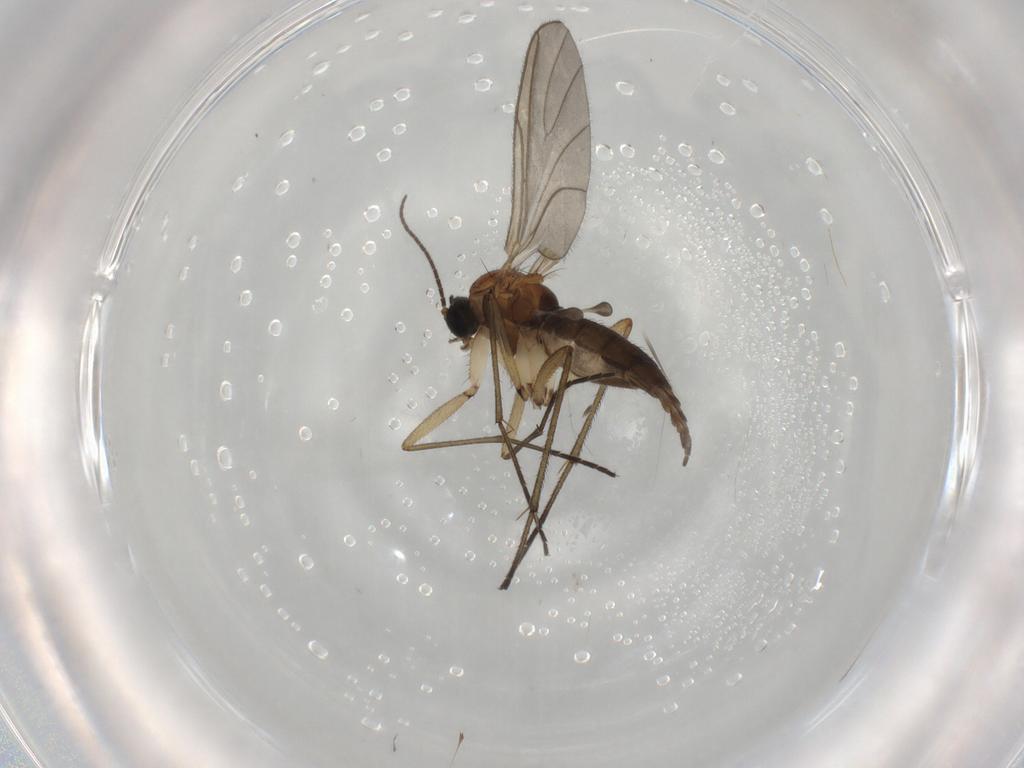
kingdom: Animalia
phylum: Arthropoda
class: Insecta
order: Diptera
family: Sciaridae
